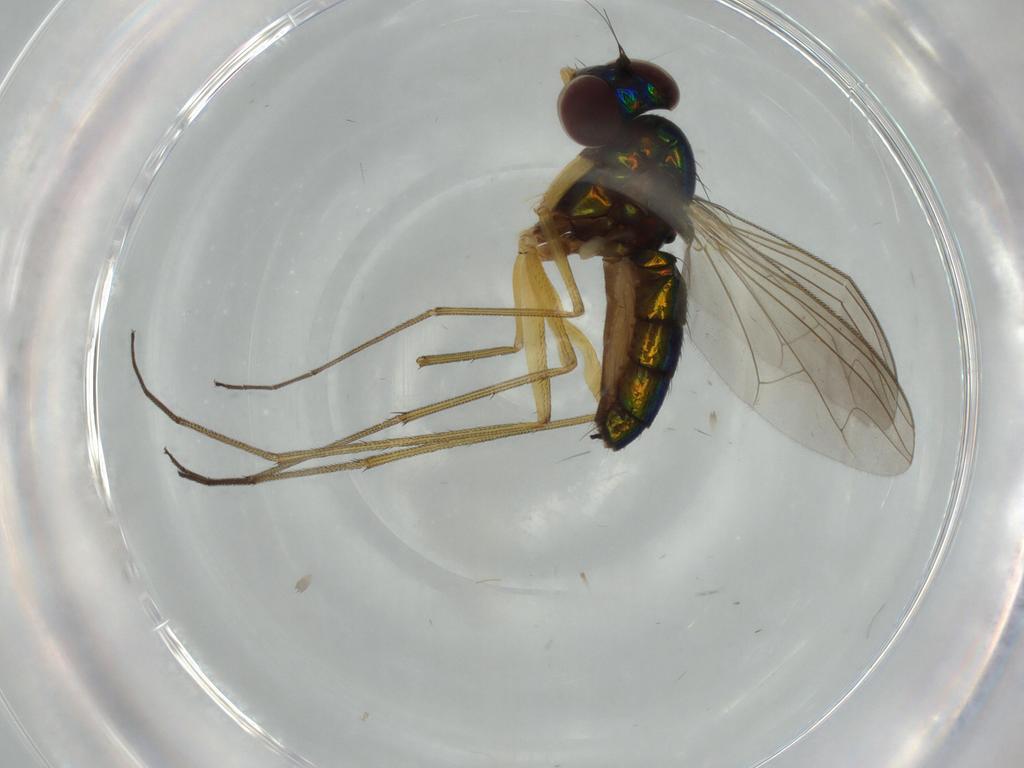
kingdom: Animalia
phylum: Arthropoda
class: Insecta
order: Diptera
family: Dolichopodidae
